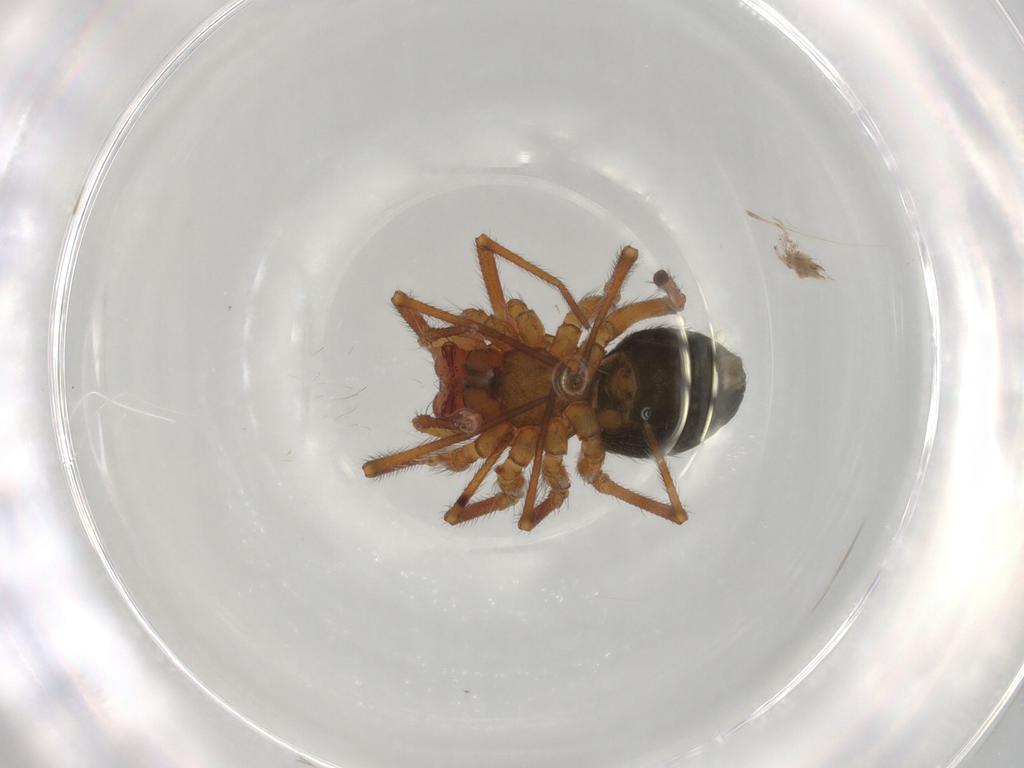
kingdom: Animalia
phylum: Arthropoda
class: Arachnida
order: Araneae
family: Linyphiidae
